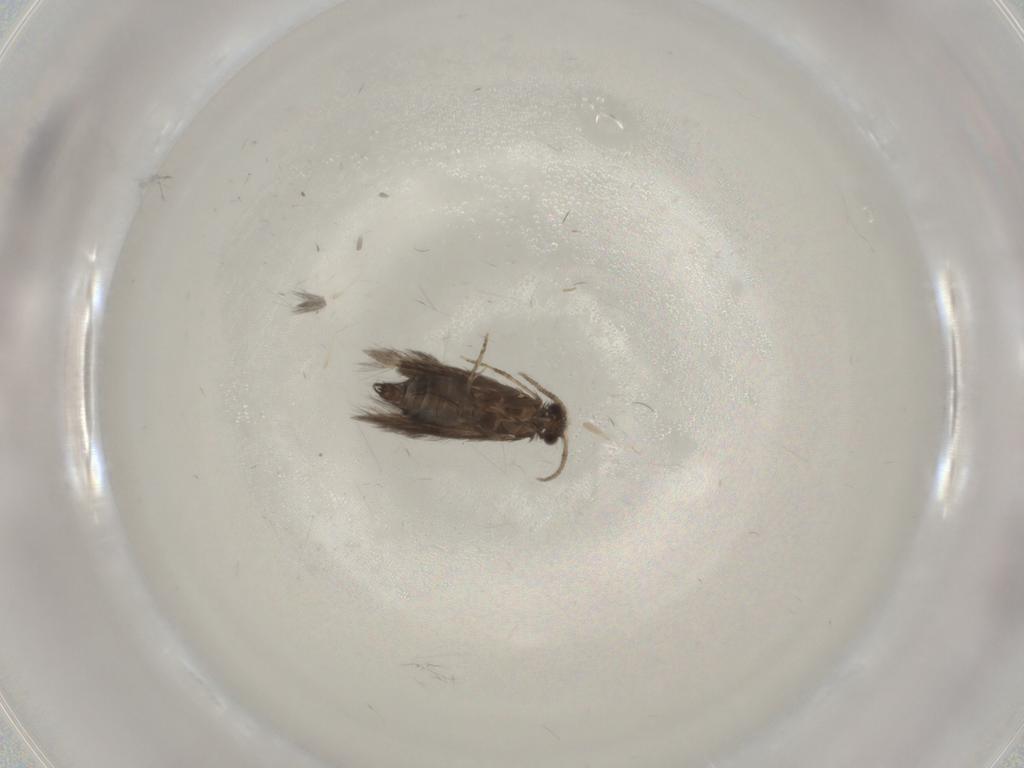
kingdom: Animalia
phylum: Arthropoda
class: Insecta
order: Trichoptera
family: Hydroptilidae
